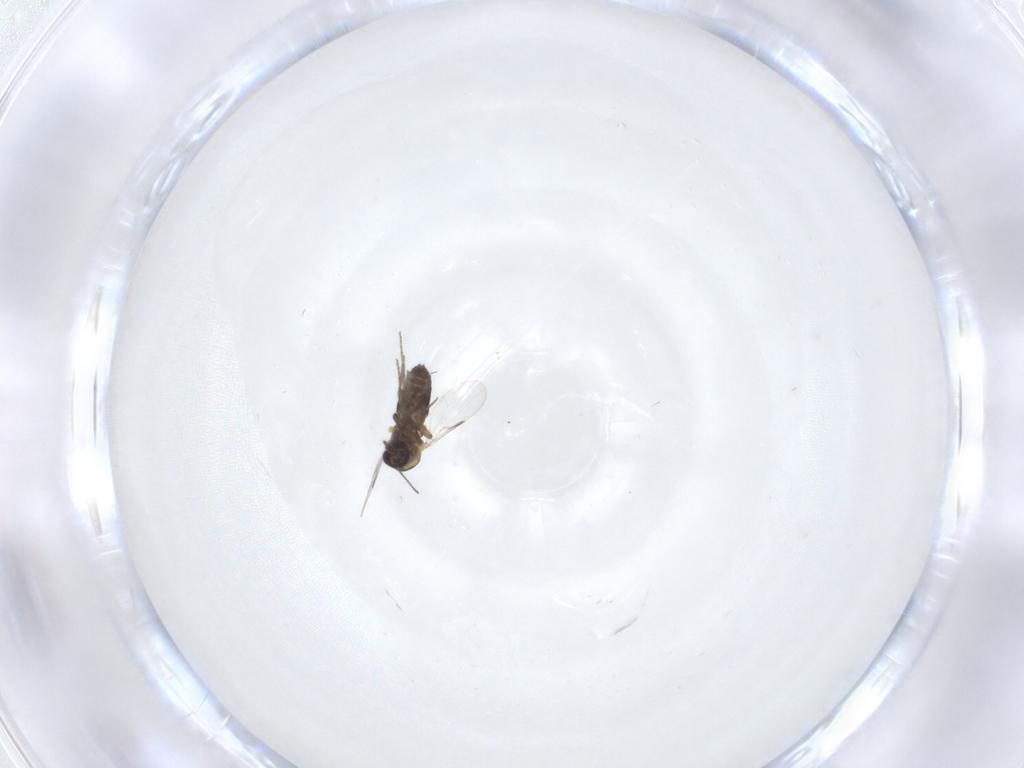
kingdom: Animalia
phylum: Arthropoda
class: Insecta
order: Diptera
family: Ceratopogonidae
